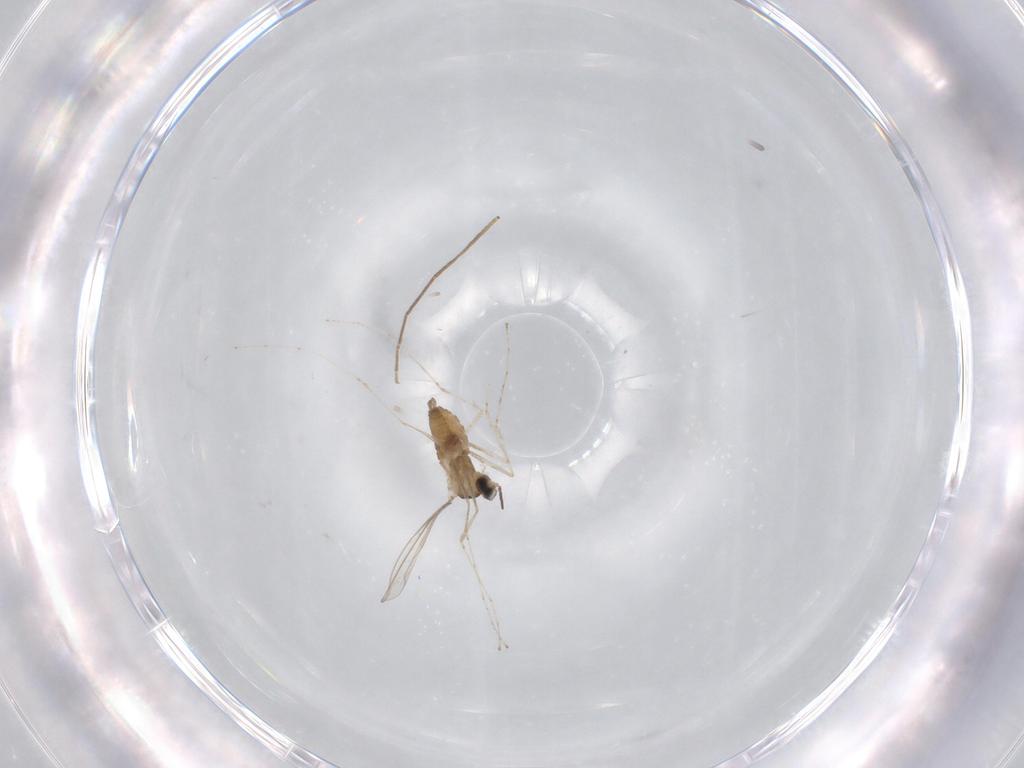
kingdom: Animalia
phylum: Arthropoda
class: Insecta
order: Diptera
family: Cecidomyiidae
